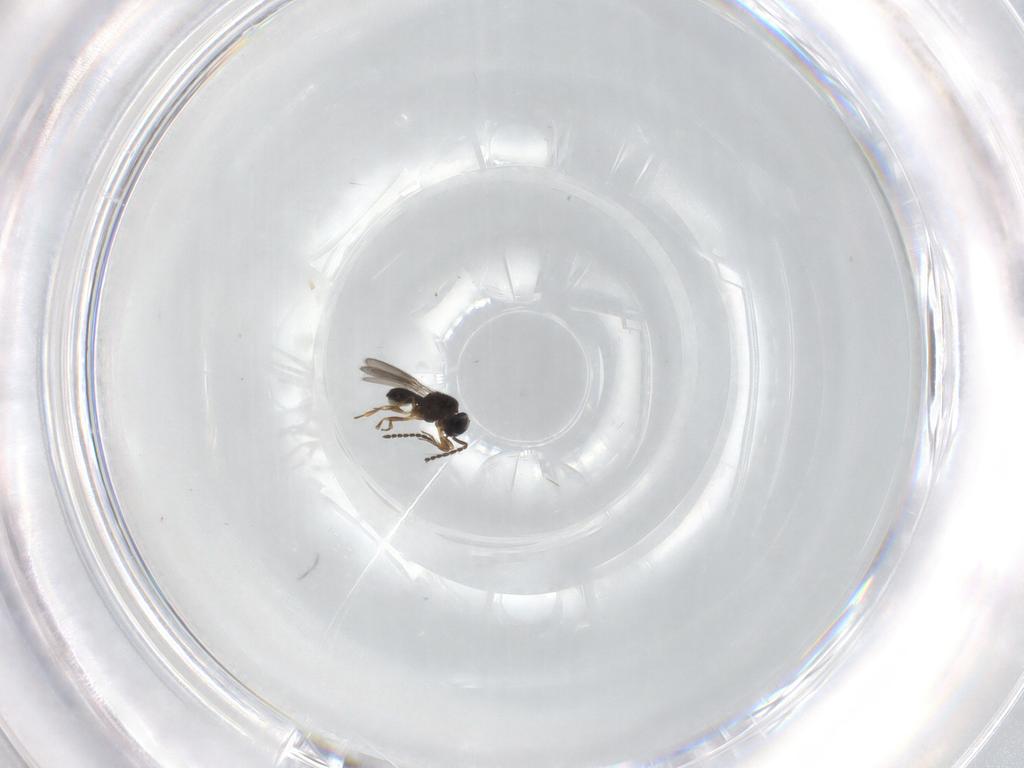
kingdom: Animalia
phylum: Arthropoda
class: Insecta
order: Hymenoptera
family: Scelionidae
